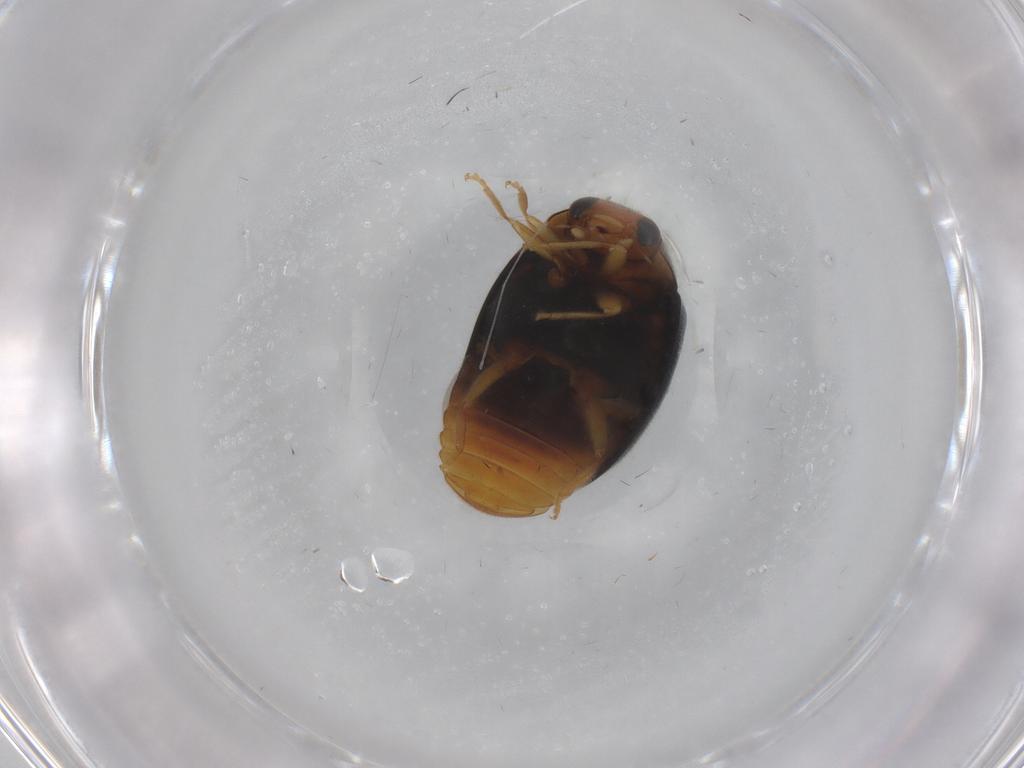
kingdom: Animalia
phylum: Arthropoda
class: Insecta
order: Coleoptera
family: Coccinellidae
